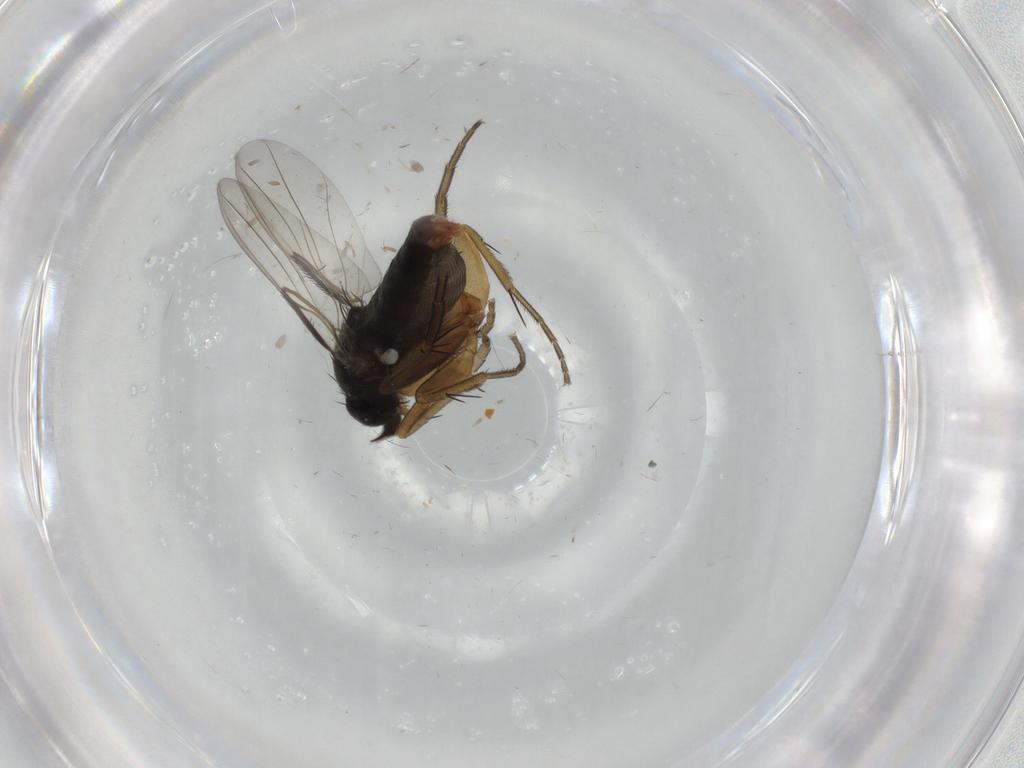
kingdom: Animalia
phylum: Arthropoda
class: Insecta
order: Diptera
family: Phoridae
